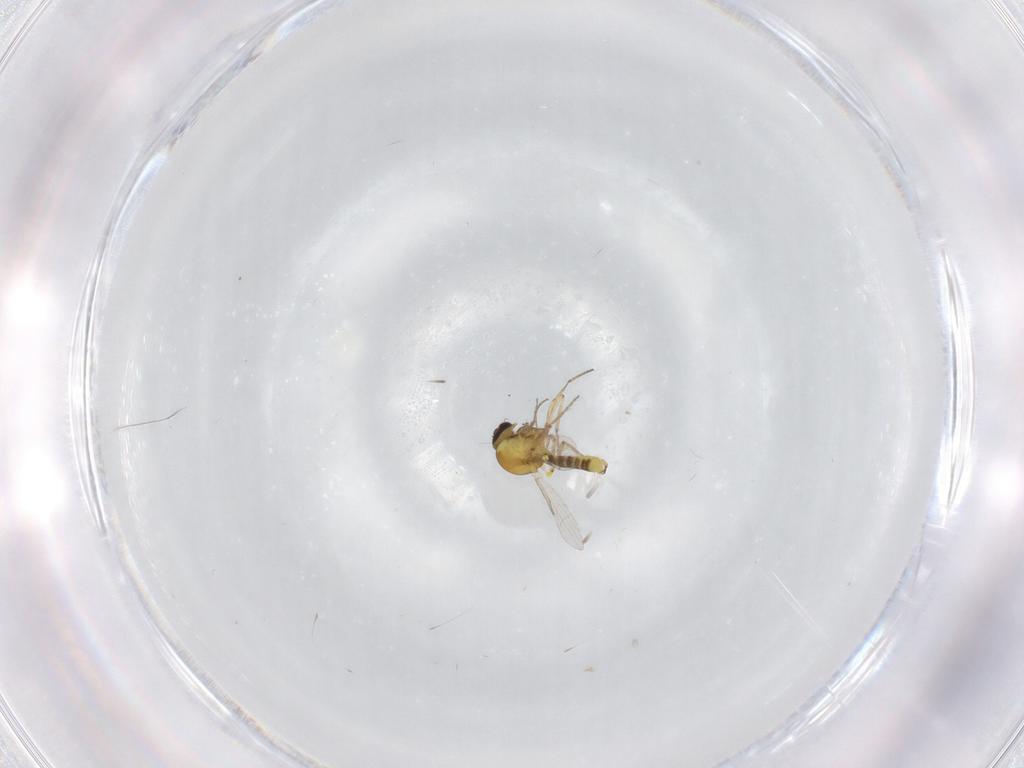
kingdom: Animalia
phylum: Arthropoda
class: Insecta
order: Diptera
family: Ceratopogonidae
